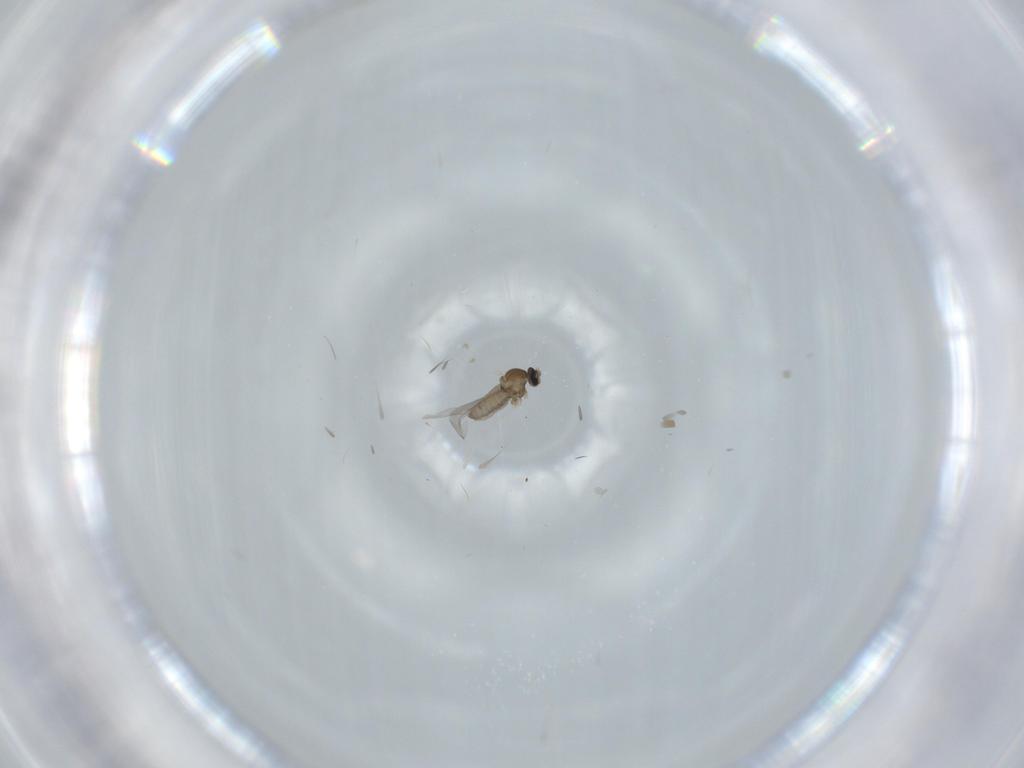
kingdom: Animalia
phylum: Arthropoda
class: Insecta
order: Diptera
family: Cecidomyiidae
